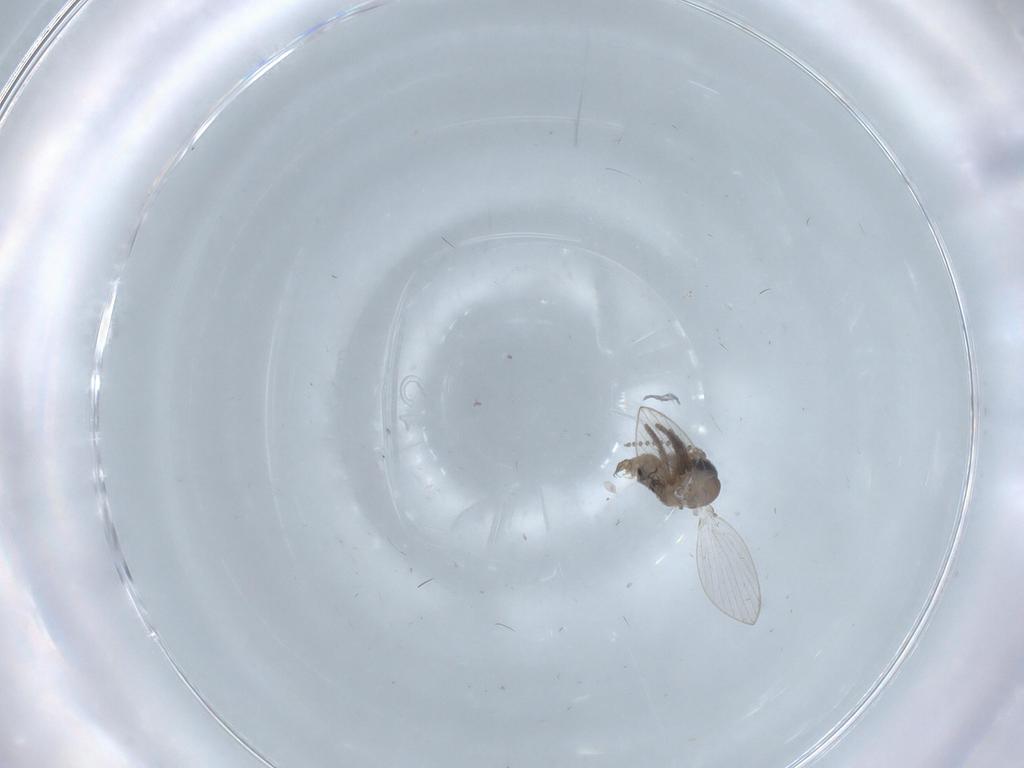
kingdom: Animalia
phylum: Arthropoda
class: Insecta
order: Diptera
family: Psychodidae
